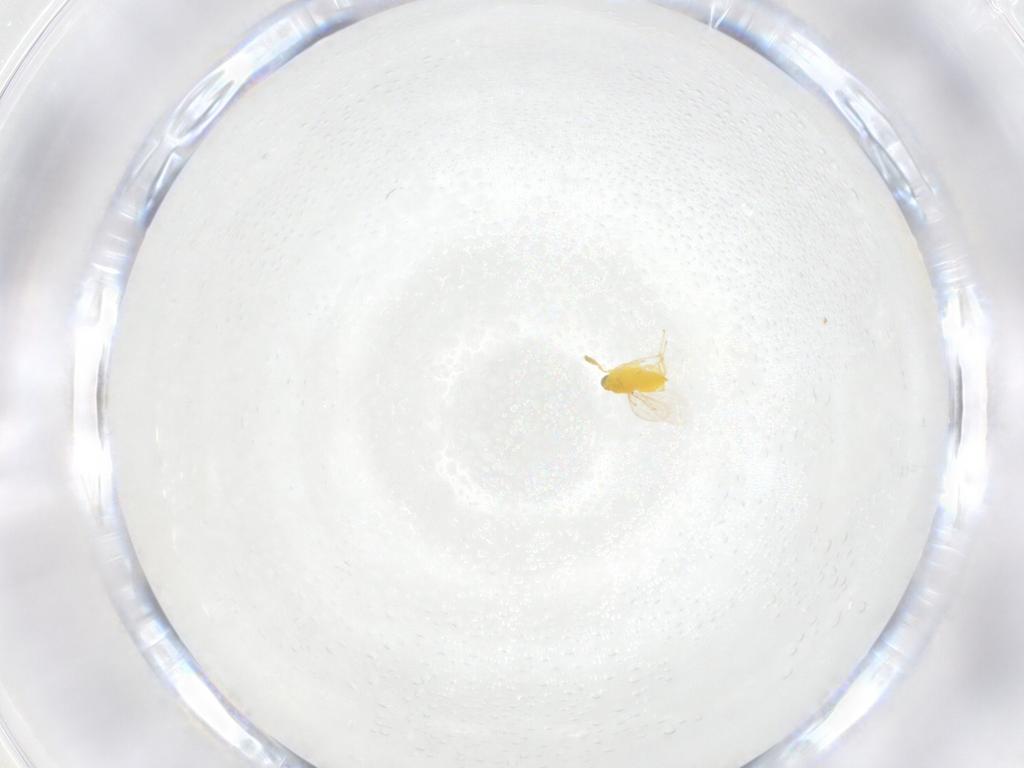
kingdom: Animalia
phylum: Arthropoda
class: Insecta
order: Hymenoptera
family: Aphelinidae
